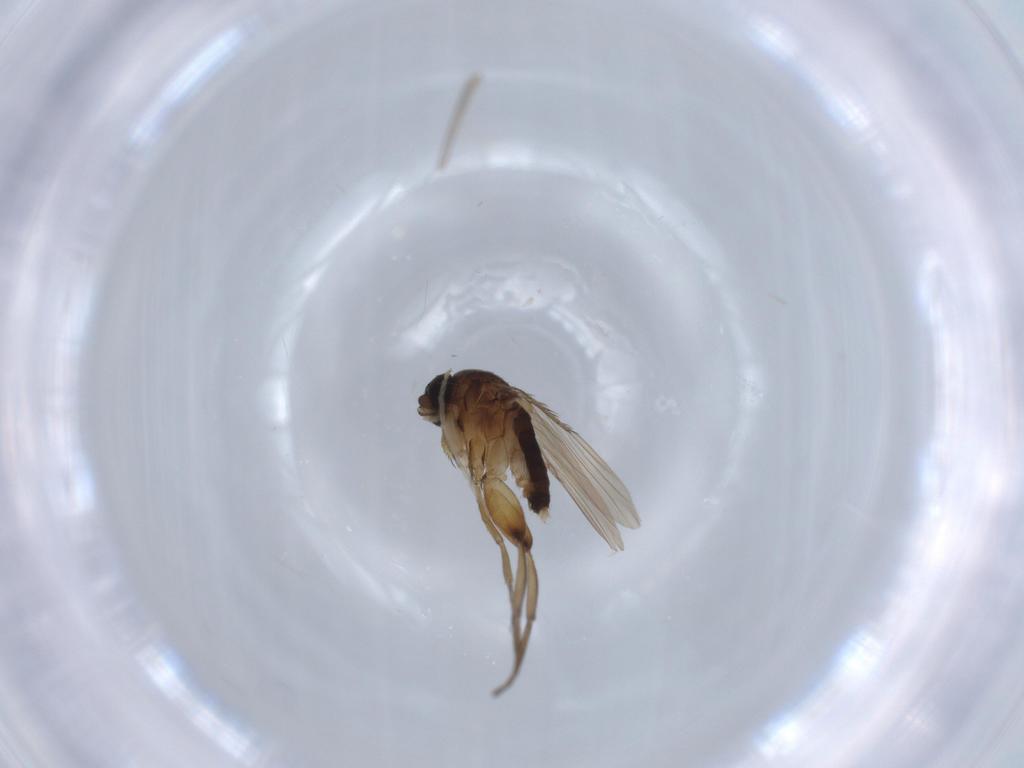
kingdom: Animalia
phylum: Arthropoda
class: Insecta
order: Diptera
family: Phoridae
